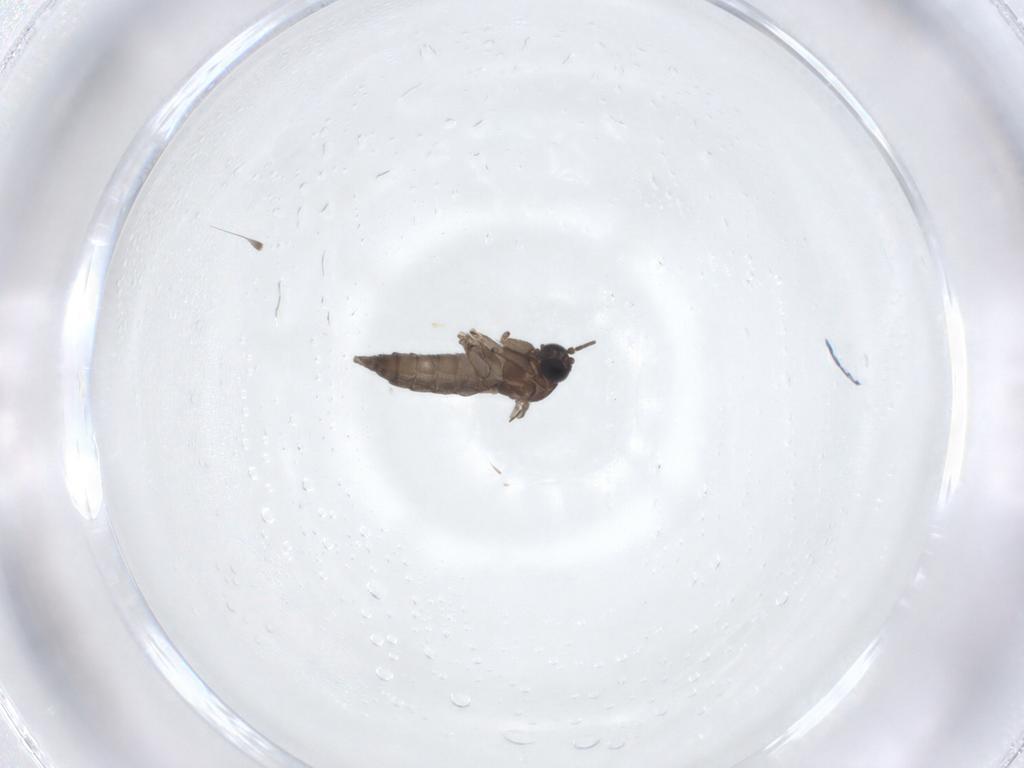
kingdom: Animalia
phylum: Arthropoda
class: Insecta
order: Diptera
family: Sciaridae
